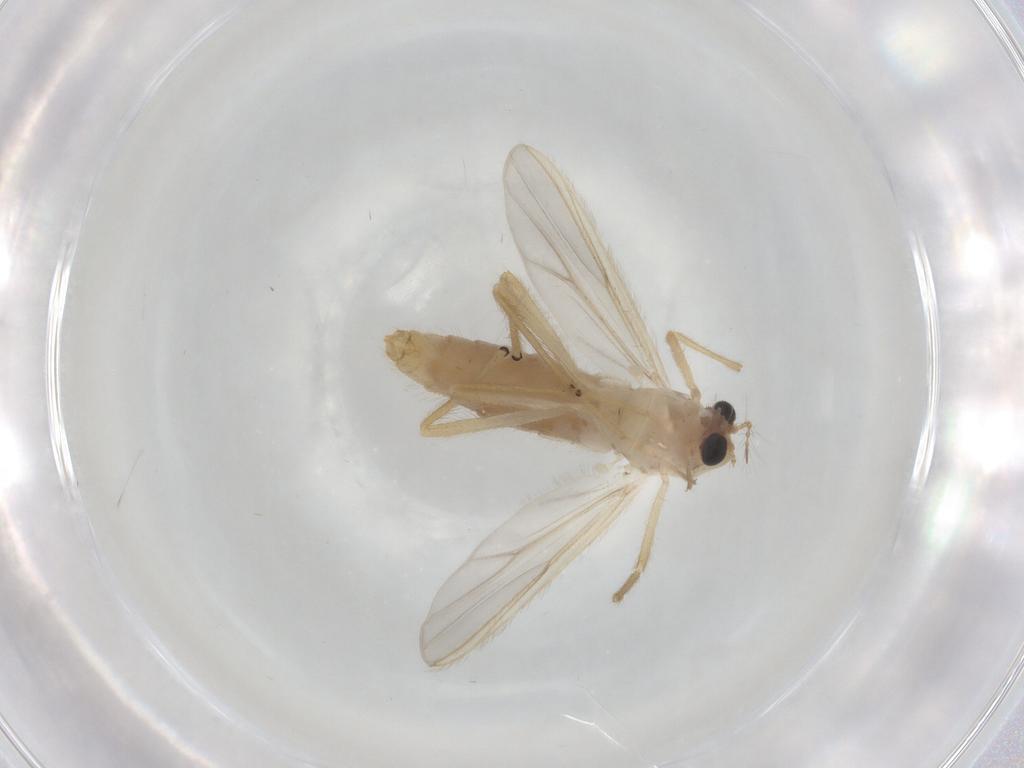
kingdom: Animalia
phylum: Arthropoda
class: Insecta
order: Diptera
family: Chironomidae
